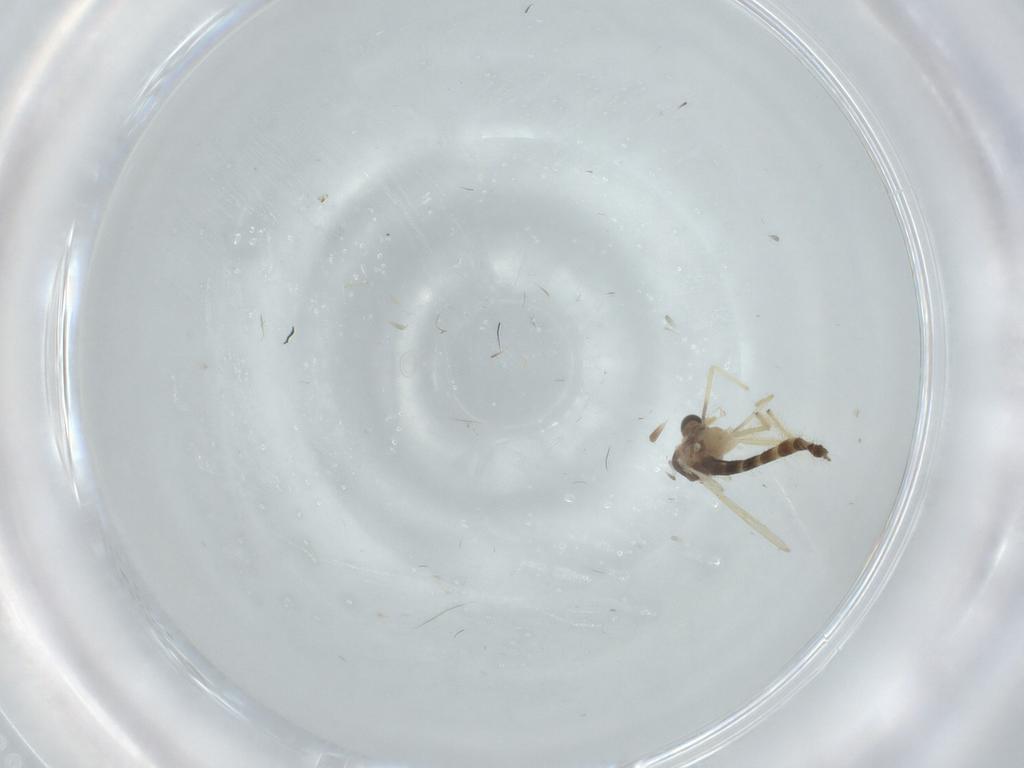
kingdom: Animalia
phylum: Arthropoda
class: Insecta
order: Diptera
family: Chironomidae
